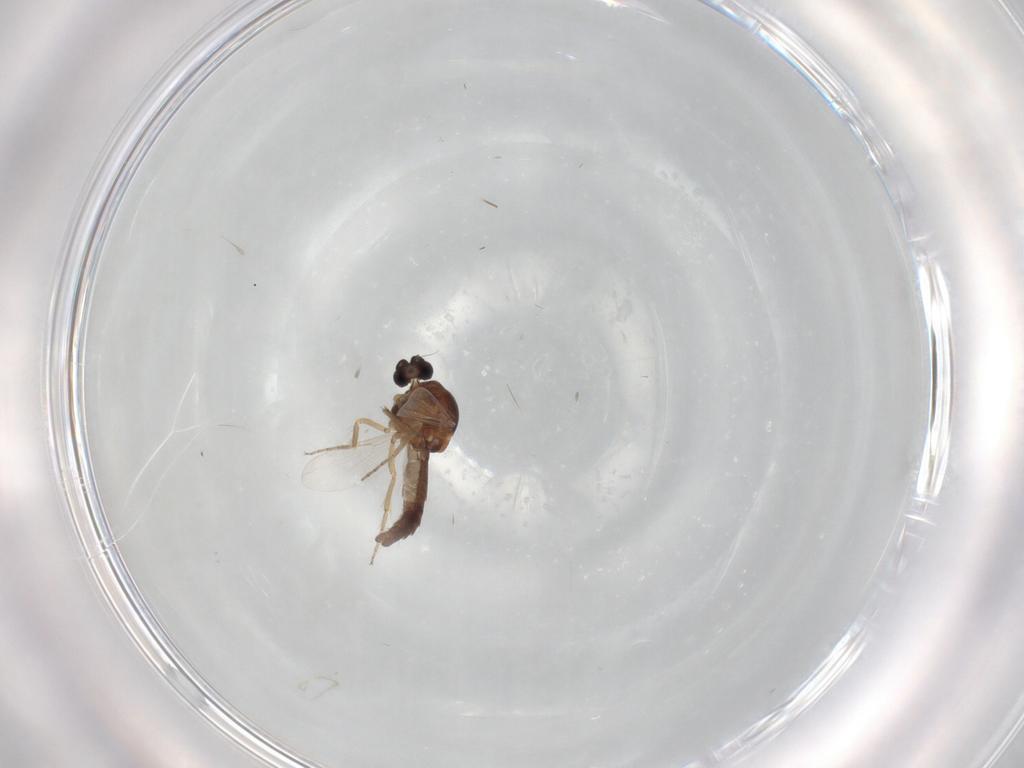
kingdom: Animalia
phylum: Arthropoda
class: Insecta
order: Diptera
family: Ceratopogonidae
